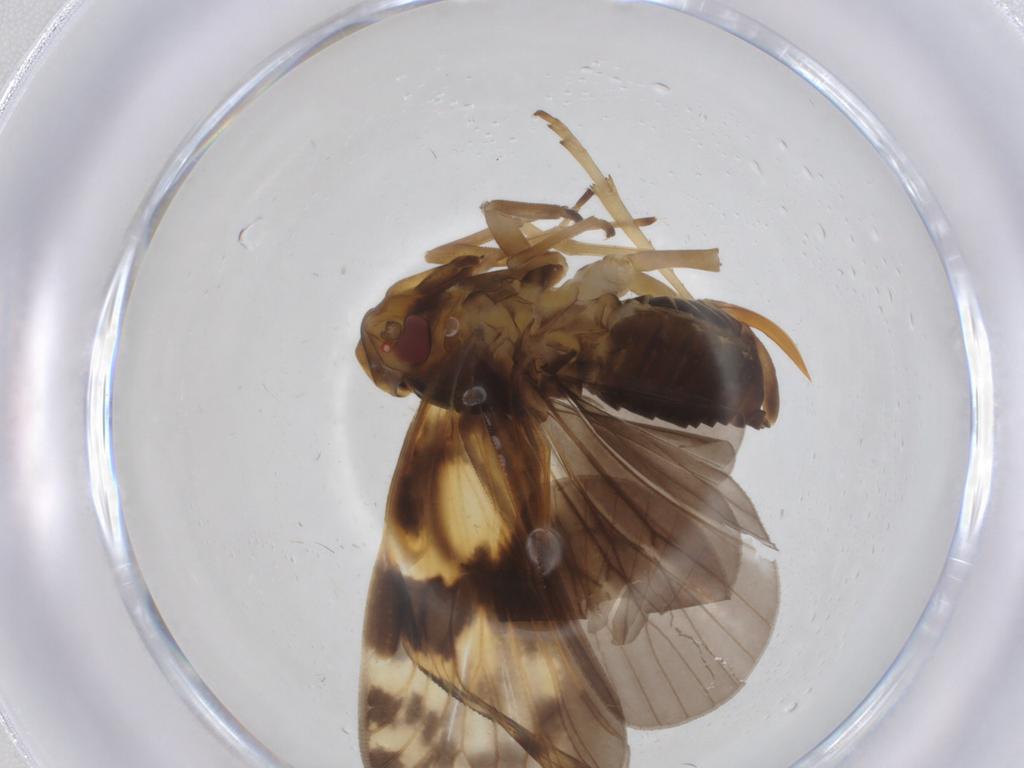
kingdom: Animalia
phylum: Arthropoda
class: Insecta
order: Hemiptera
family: Cixiidae
